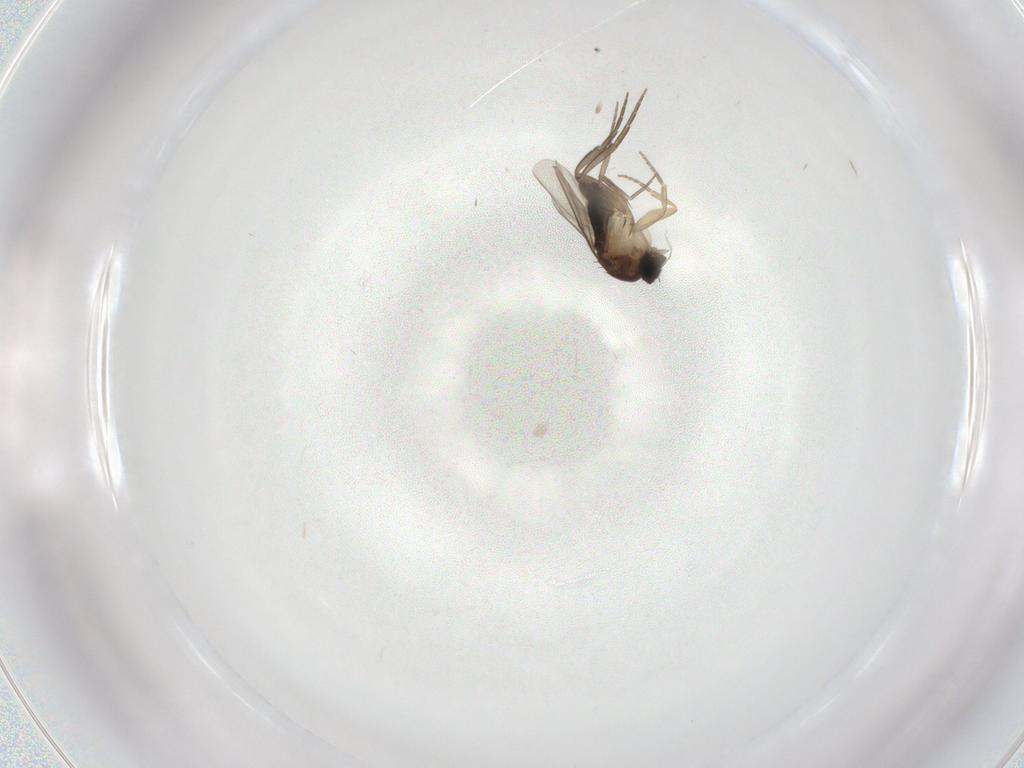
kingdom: Animalia
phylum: Arthropoda
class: Insecta
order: Diptera
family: Phoridae
